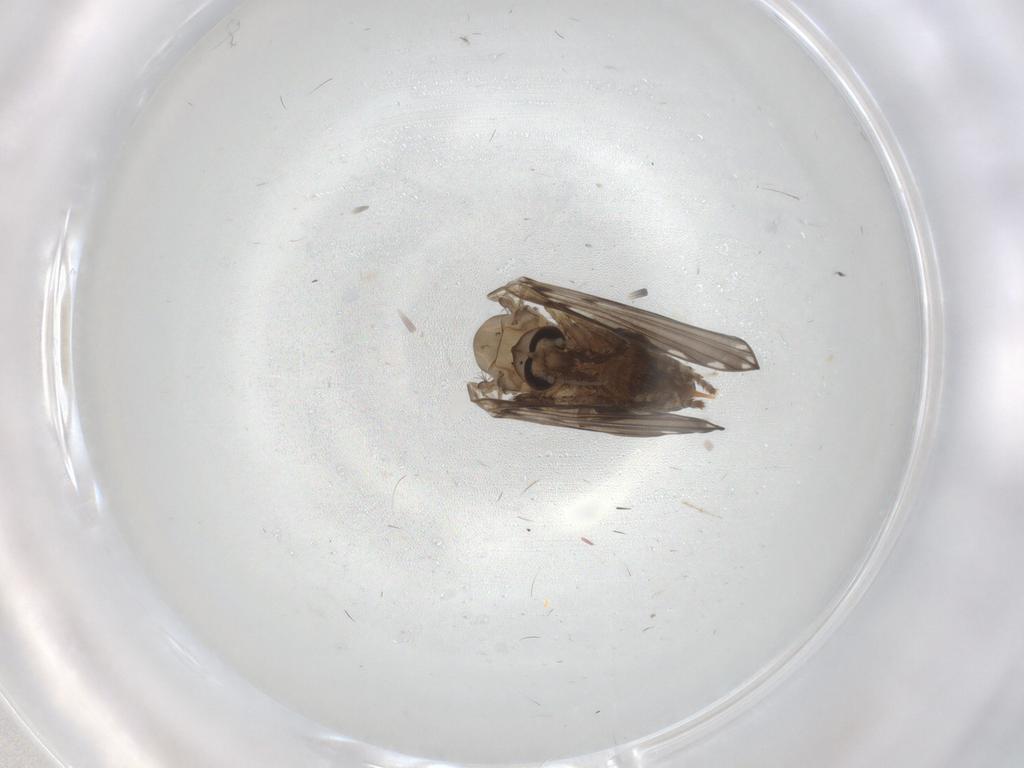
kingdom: Animalia
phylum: Arthropoda
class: Insecta
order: Diptera
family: Psychodidae
